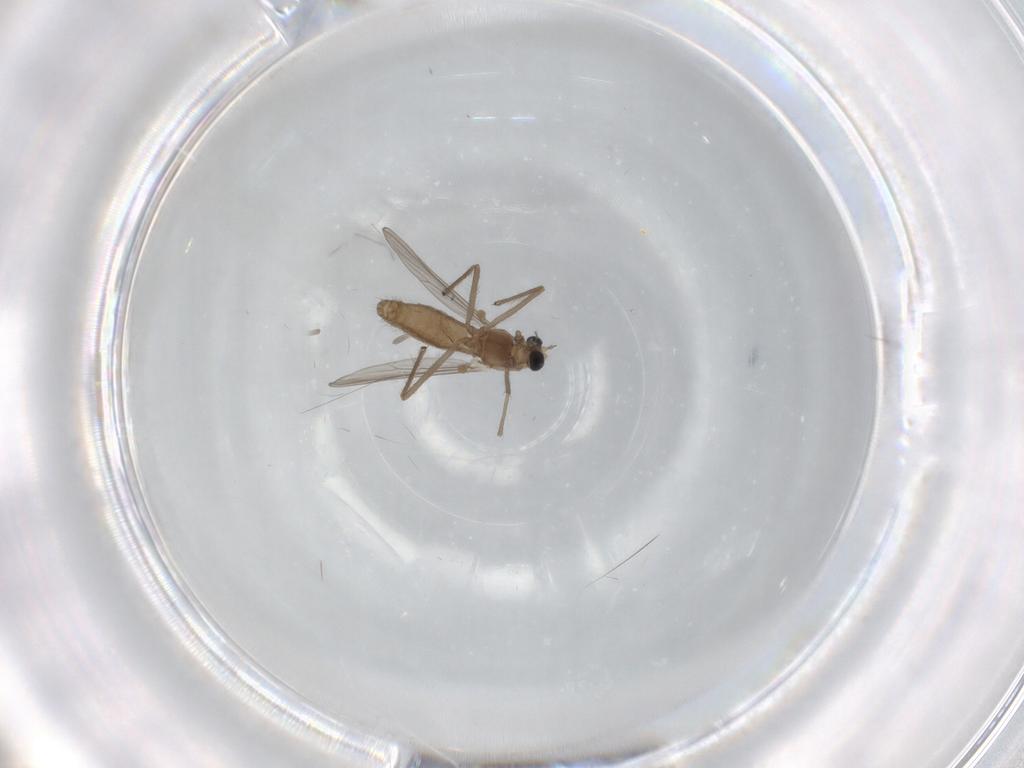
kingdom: Animalia
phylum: Arthropoda
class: Insecta
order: Diptera
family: Chironomidae
